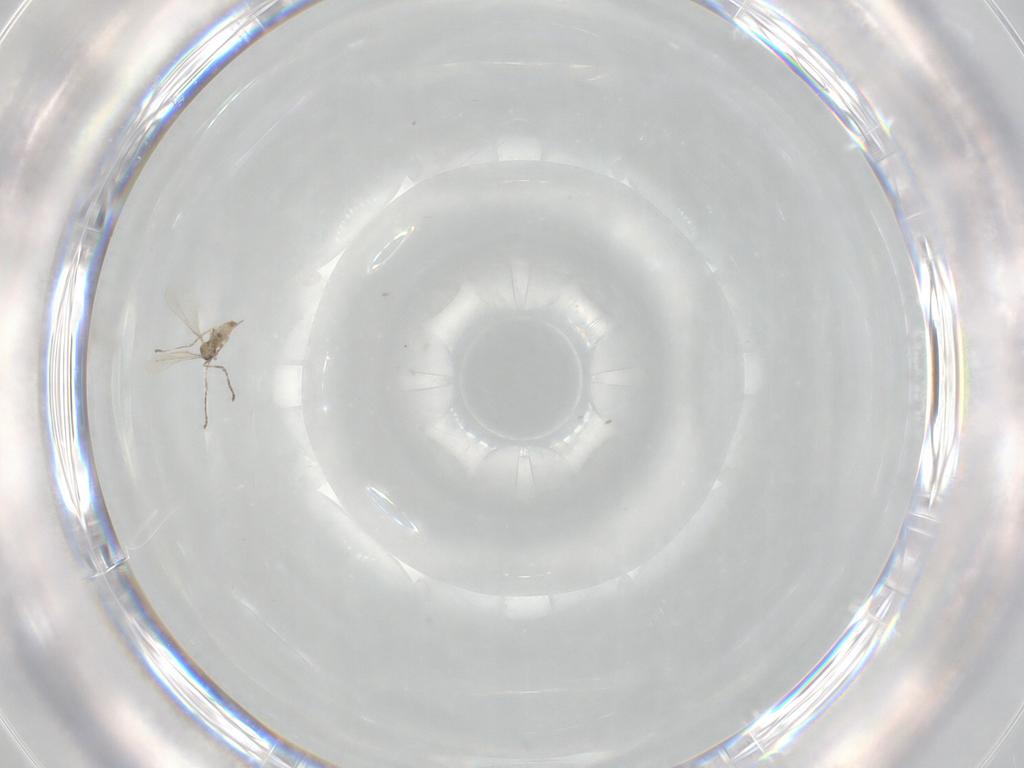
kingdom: Animalia
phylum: Arthropoda
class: Insecta
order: Diptera
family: Cecidomyiidae
